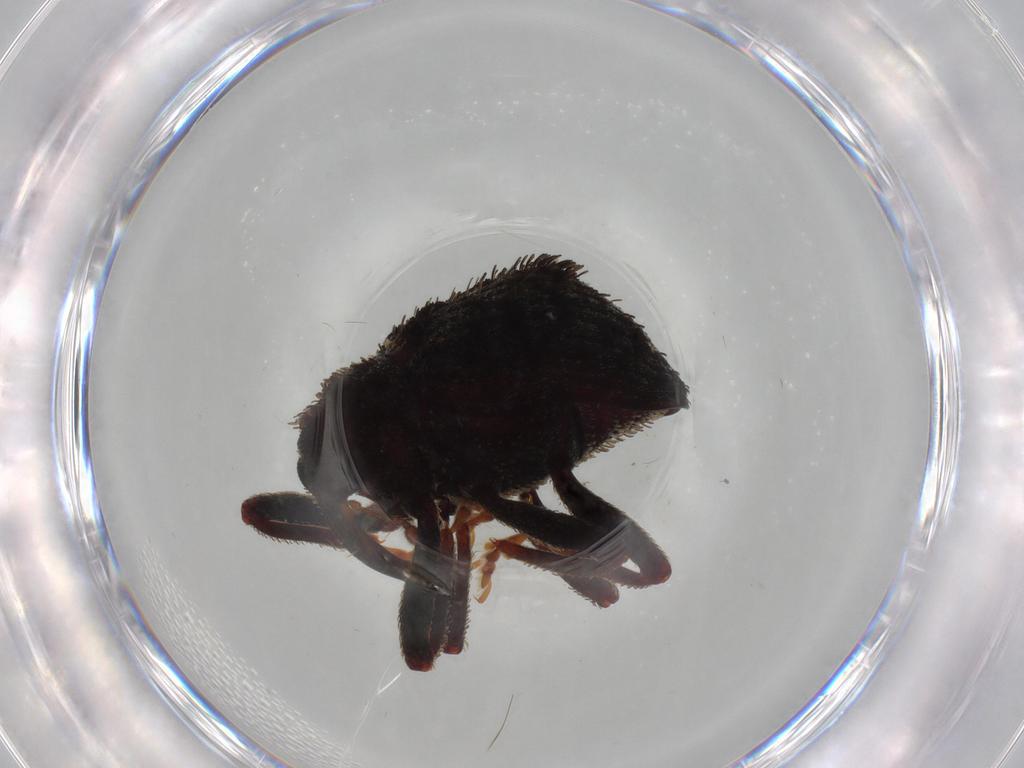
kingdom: Animalia
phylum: Arthropoda
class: Insecta
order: Coleoptera
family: Curculionidae
